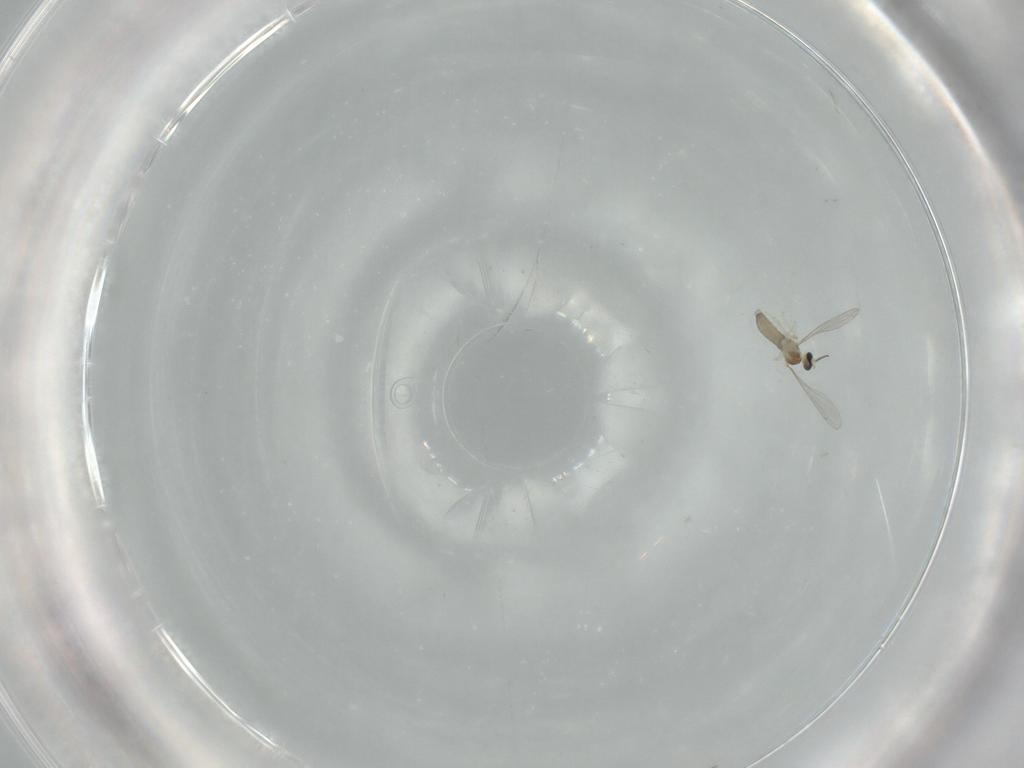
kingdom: Animalia
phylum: Arthropoda
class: Insecta
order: Diptera
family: Sphaeroceridae
